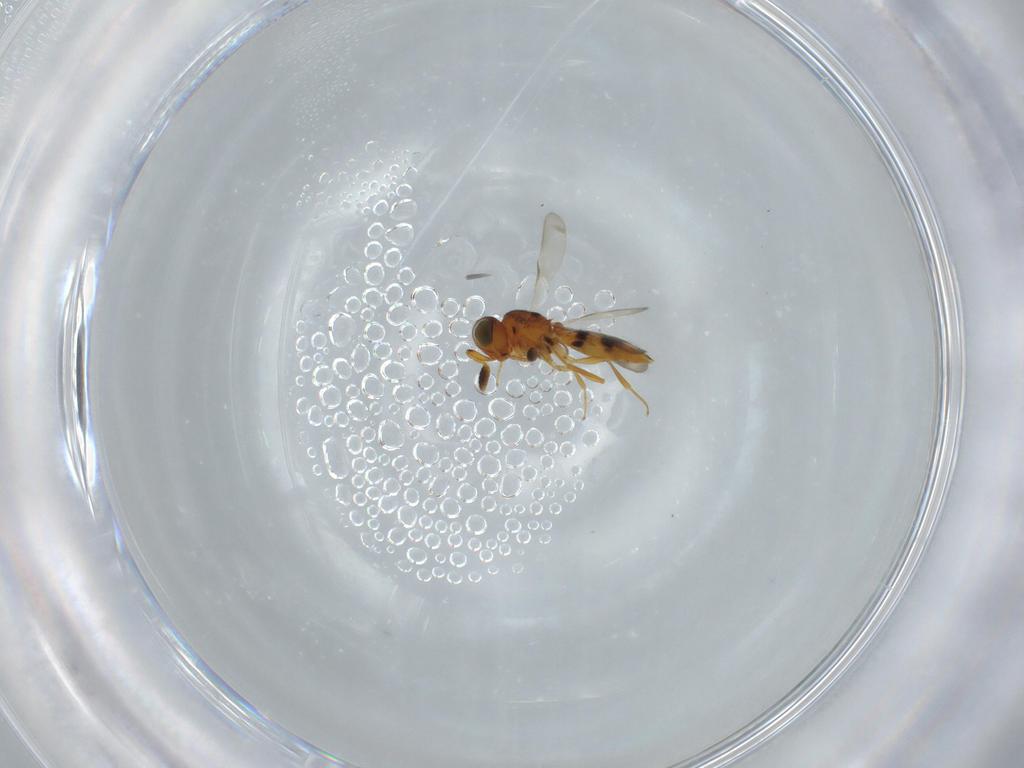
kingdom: Animalia
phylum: Arthropoda
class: Insecta
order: Hymenoptera
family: Scelionidae
